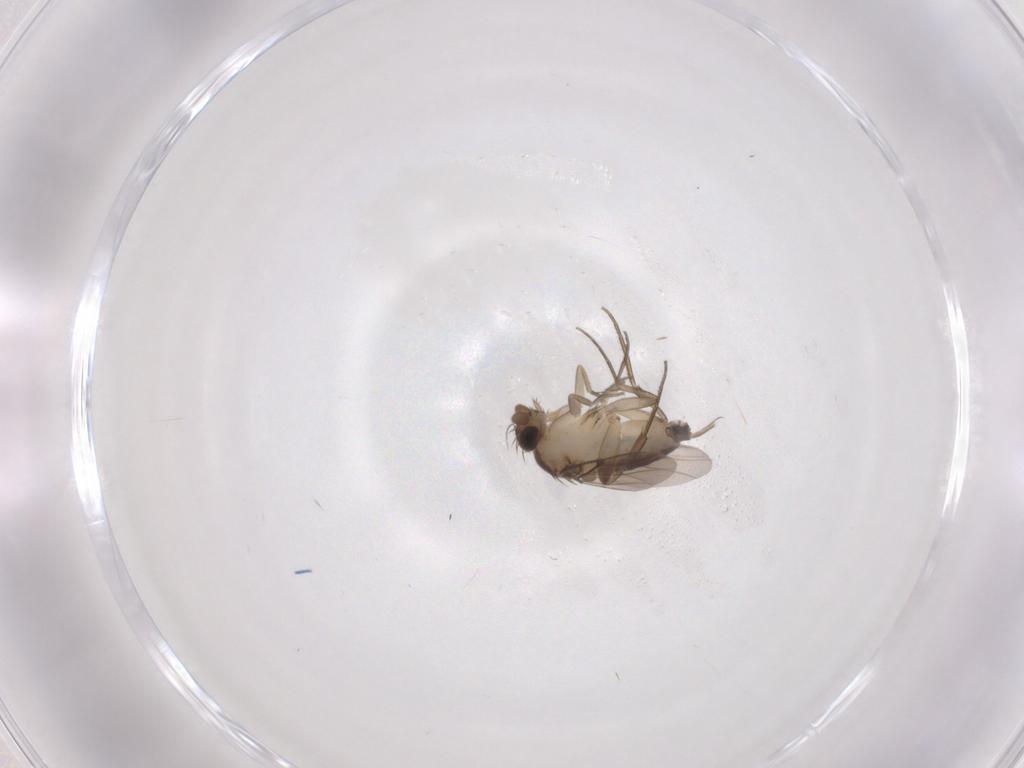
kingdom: Animalia
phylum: Arthropoda
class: Insecta
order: Diptera
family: Phoridae
